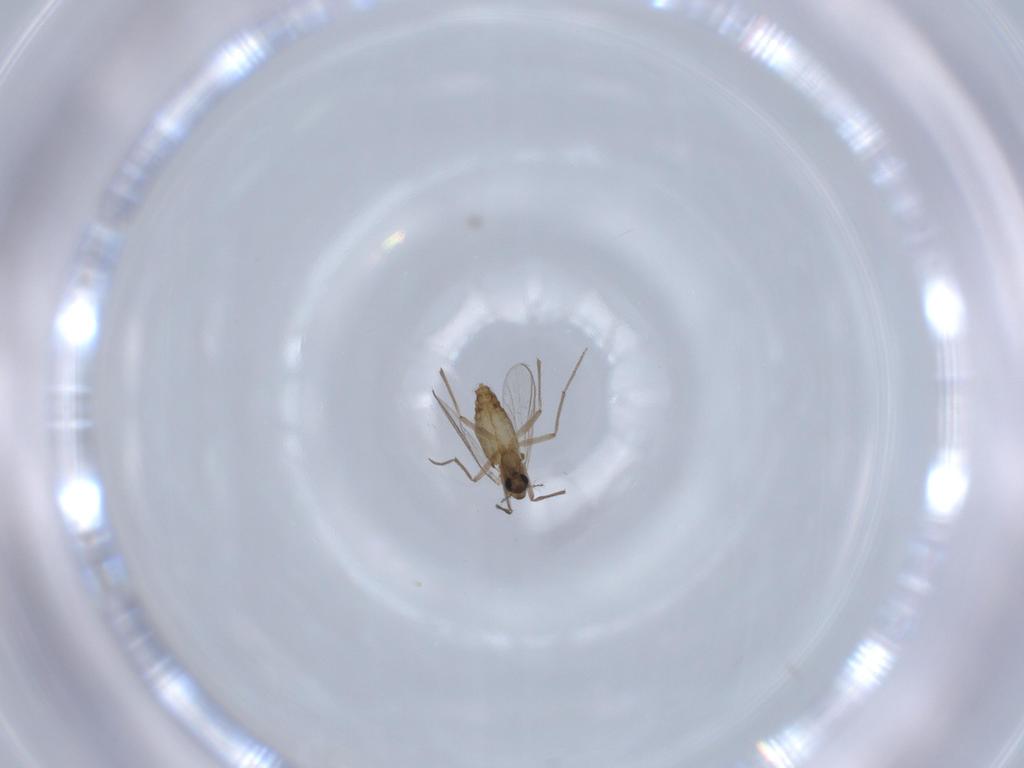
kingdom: Animalia
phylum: Arthropoda
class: Insecta
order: Diptera
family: Chironomidae
